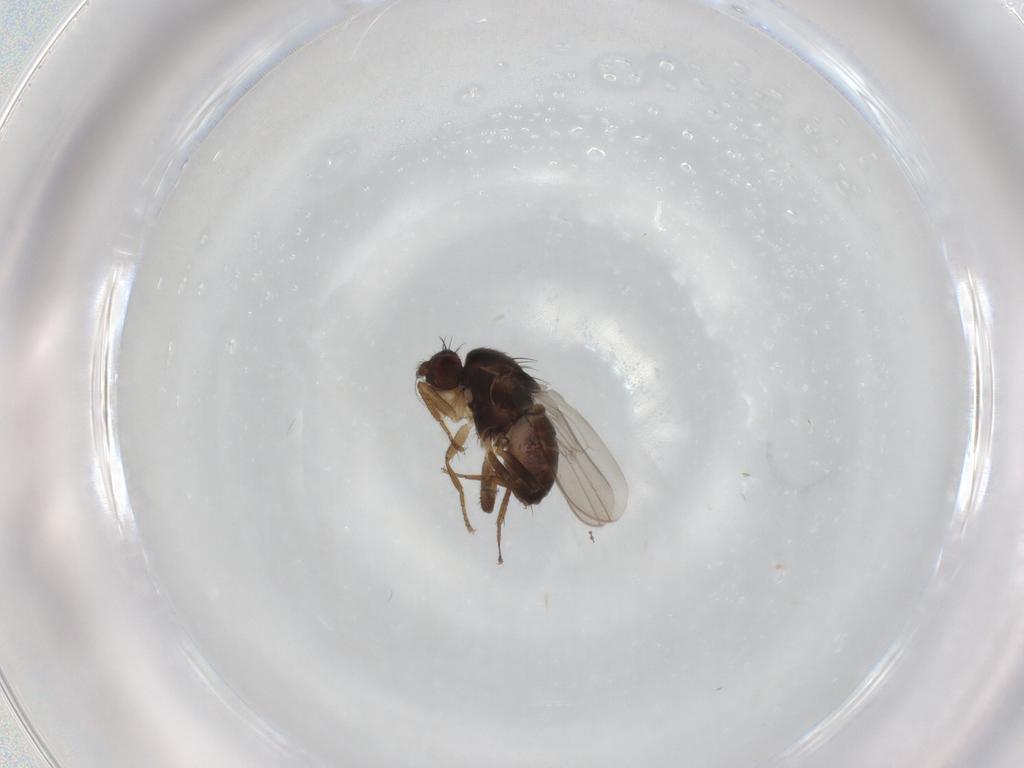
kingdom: Animalia
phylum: Arthropoda
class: Insecta
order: Diptera
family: Sphaeroceridae
